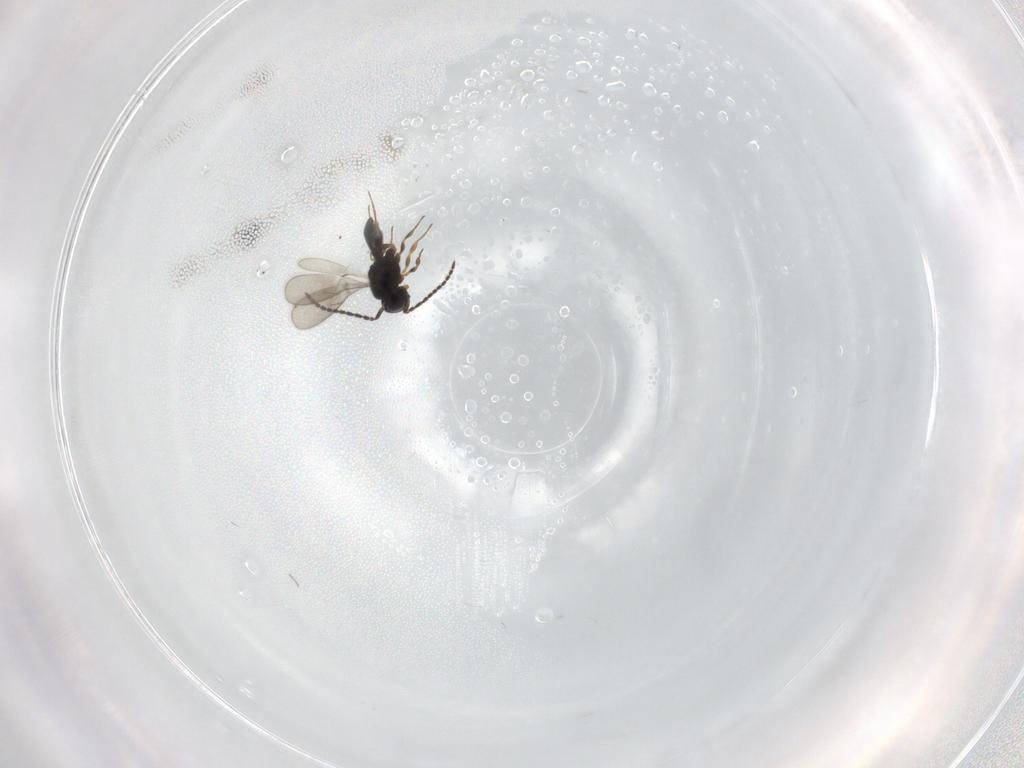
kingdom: Animalia
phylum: Arthropoda
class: Insecta
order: Hymenoptera
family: Scelionidae
